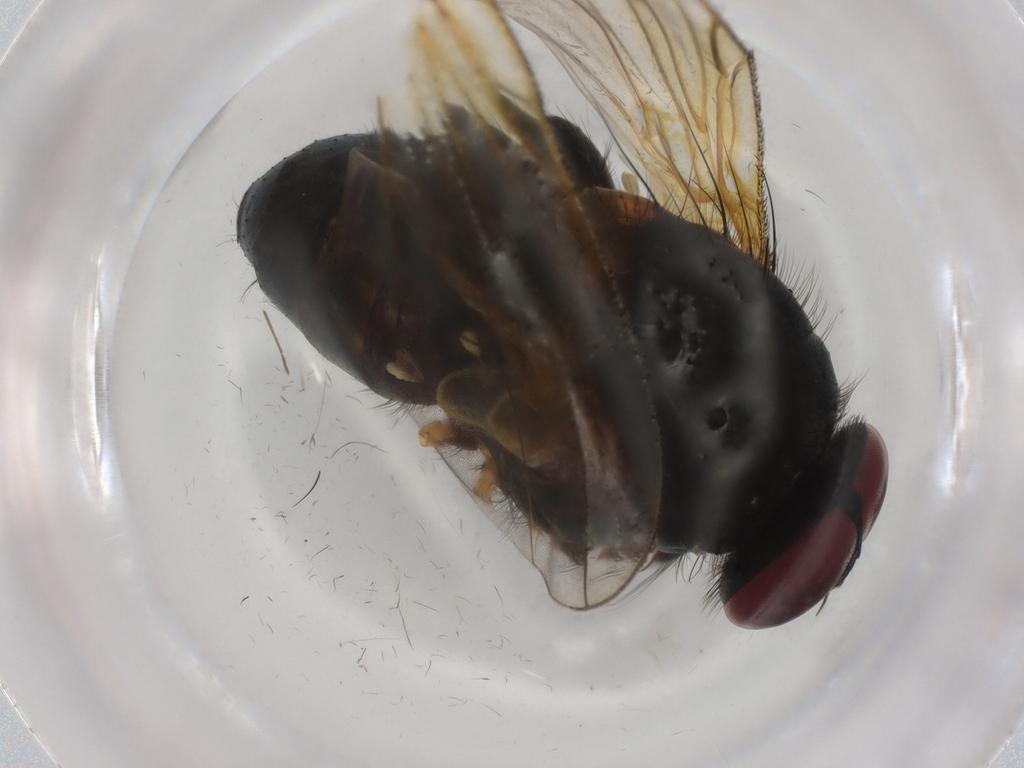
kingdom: Animalia
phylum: Arthropoda
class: Insecta
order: Diptera
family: Muscidae
